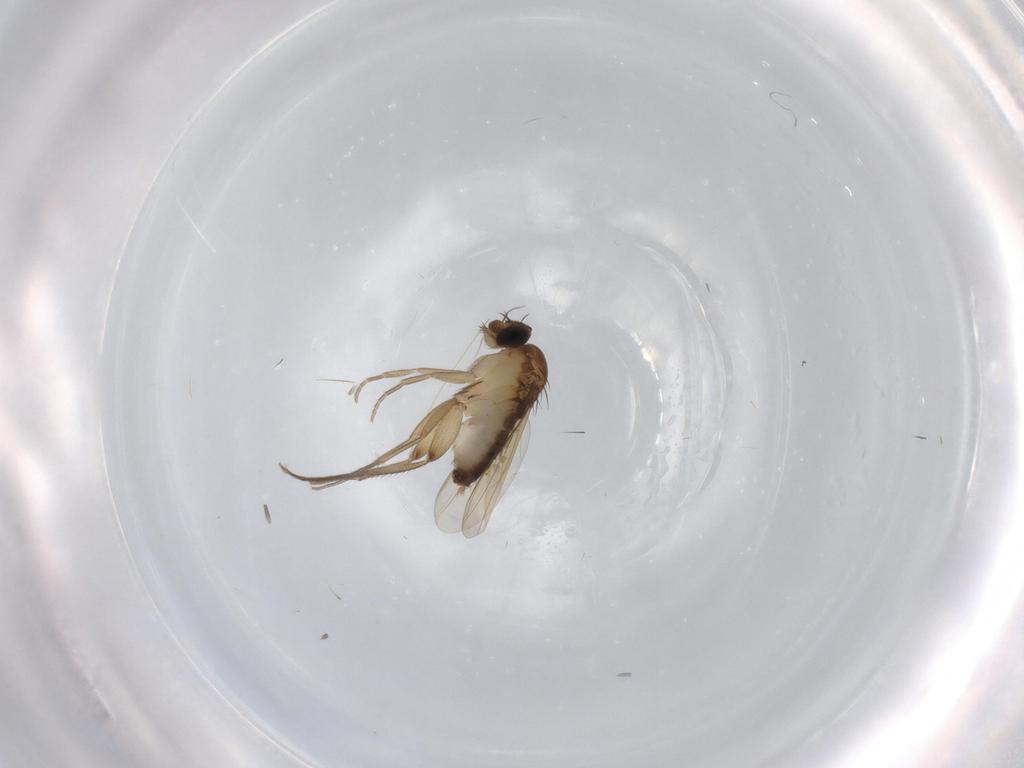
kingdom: Animalia
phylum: Arthropoda
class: Insecta
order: Diptera
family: Phoridae
